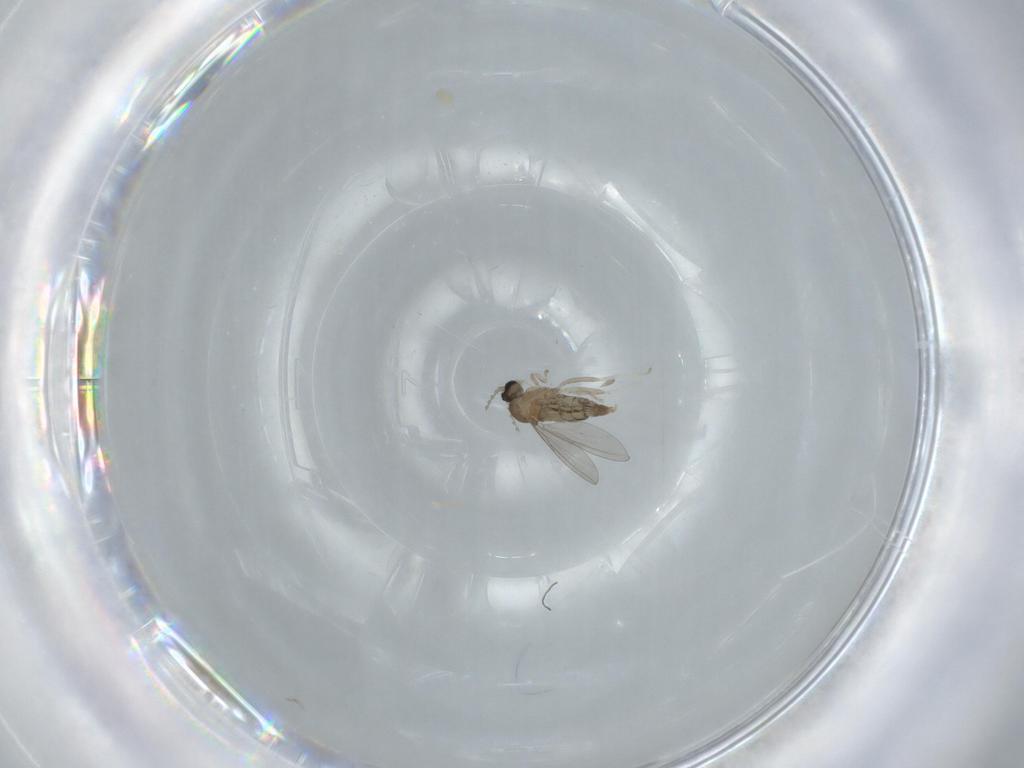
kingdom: Animalia
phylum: Arthropoda
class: Insecta
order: Diptera
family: Cecidomyiidae
